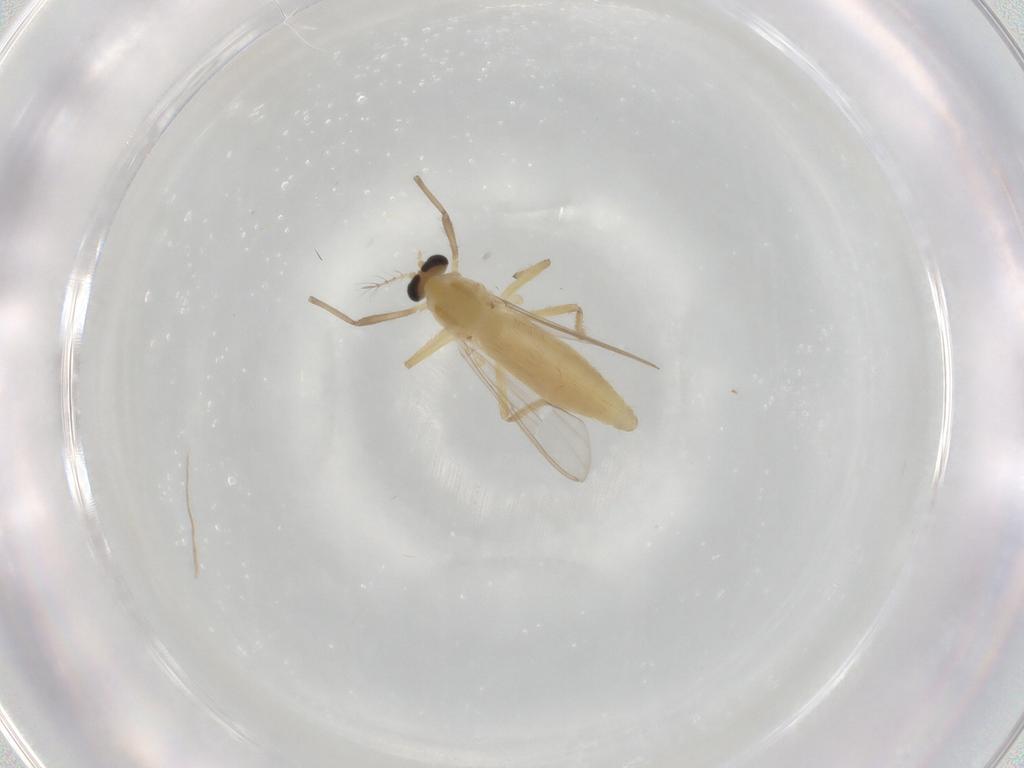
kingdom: Animalia
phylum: Arthropoda
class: Insecta
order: Diptera
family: Chironomidae
